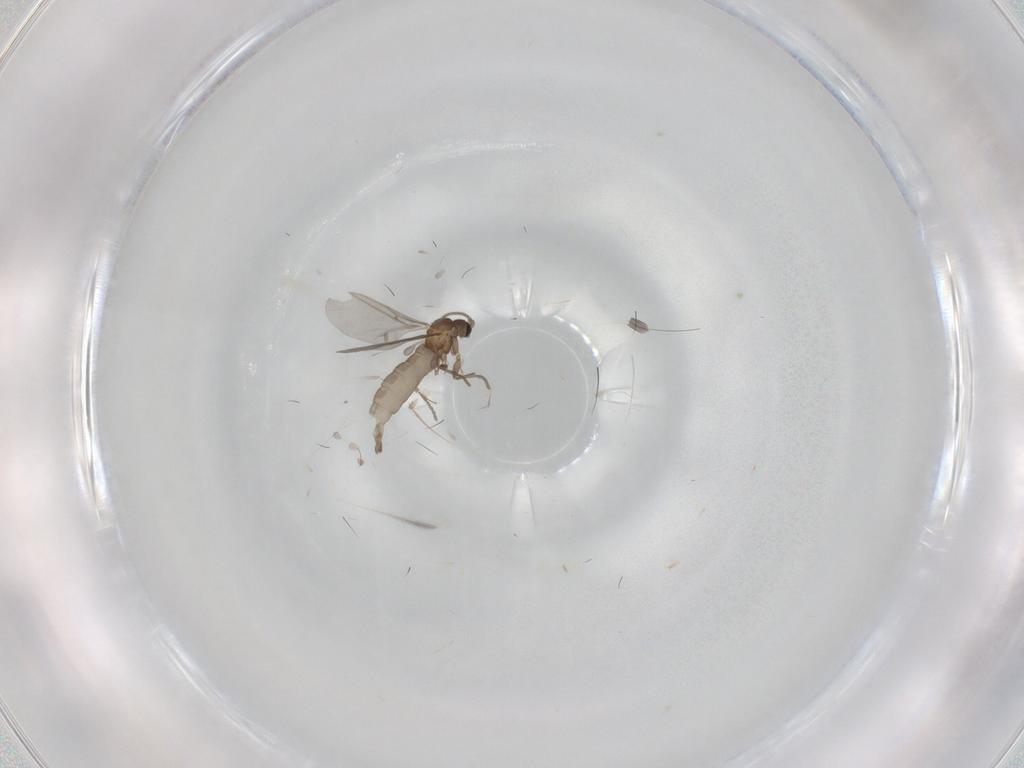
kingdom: Animalia
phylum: Arthropoda
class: Insecta
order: Diptera
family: Sciaridae
